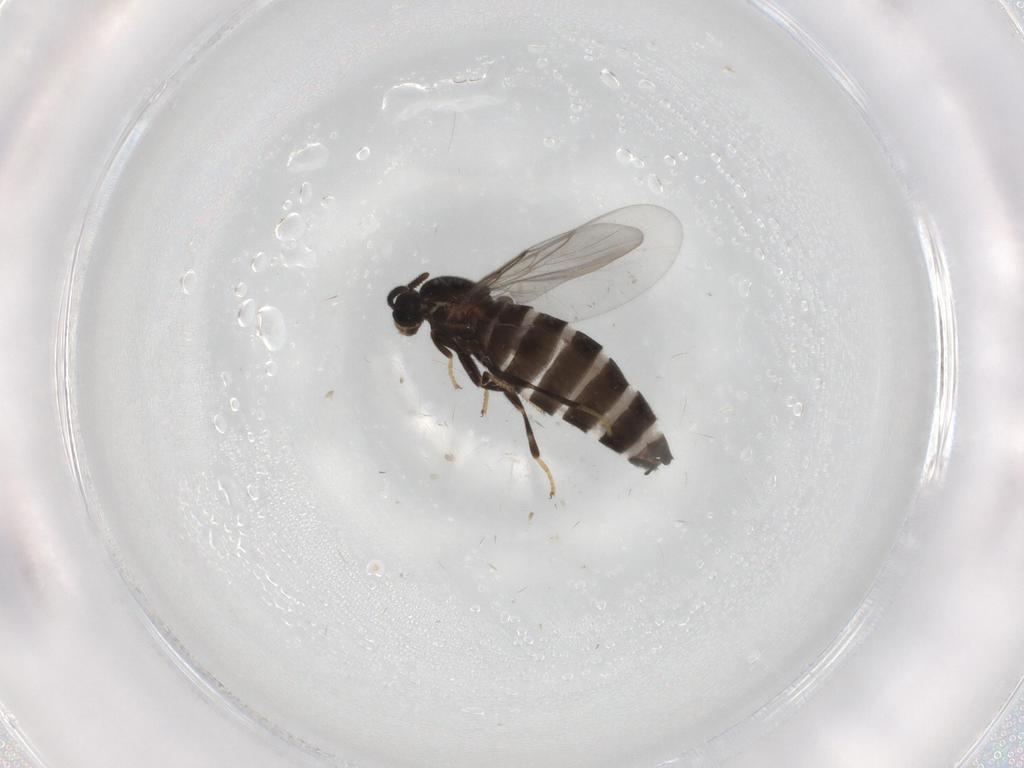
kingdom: Animalia
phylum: Arthropoda
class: Insecta
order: Diptera
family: Scatopsidae
